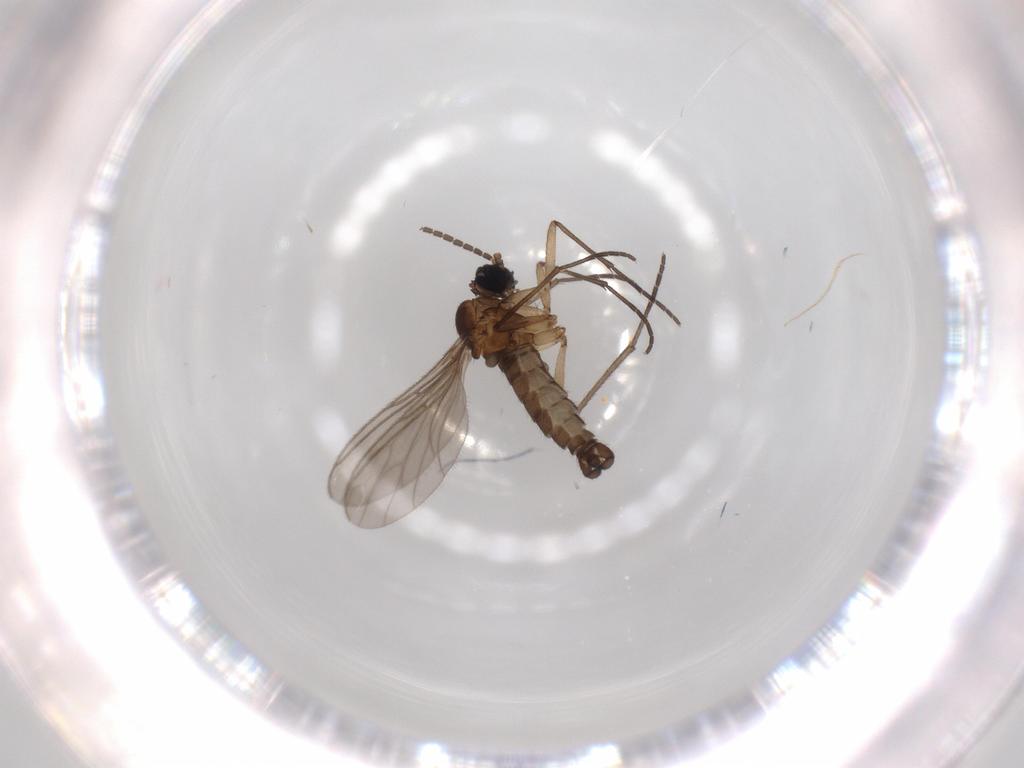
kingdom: Animalia
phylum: Arthropoda
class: Insecta
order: Diptera
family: Sciaridae
